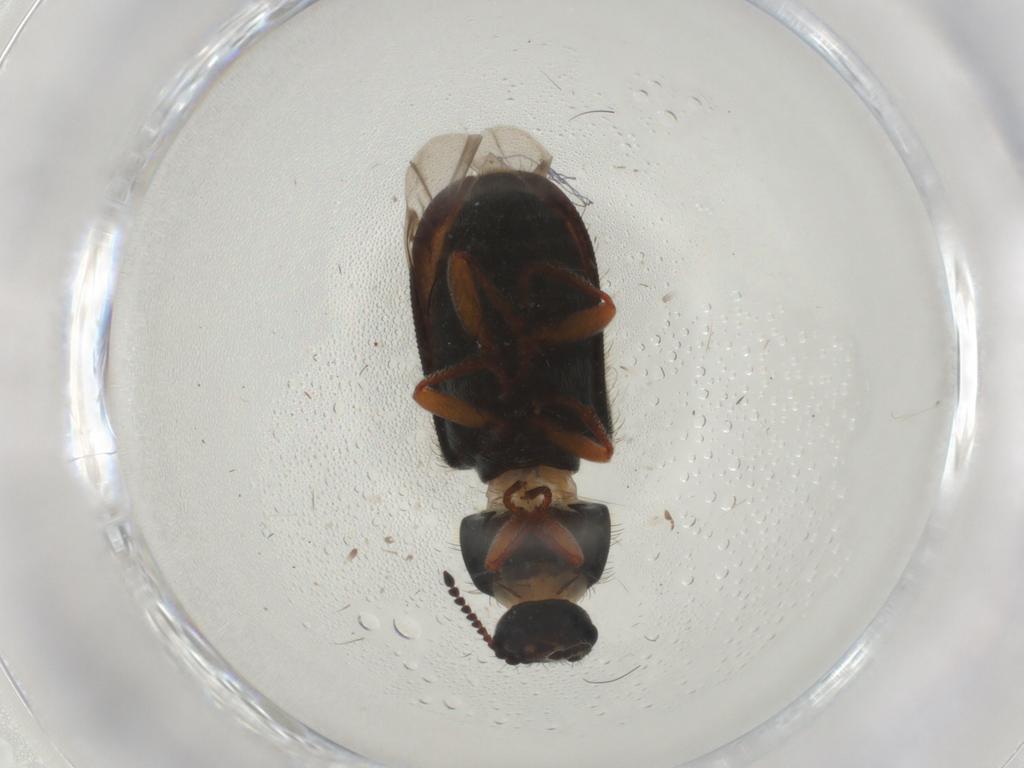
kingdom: Animalia
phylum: Arthropoda
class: Insecta
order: Coleoptera
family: Melyridae
